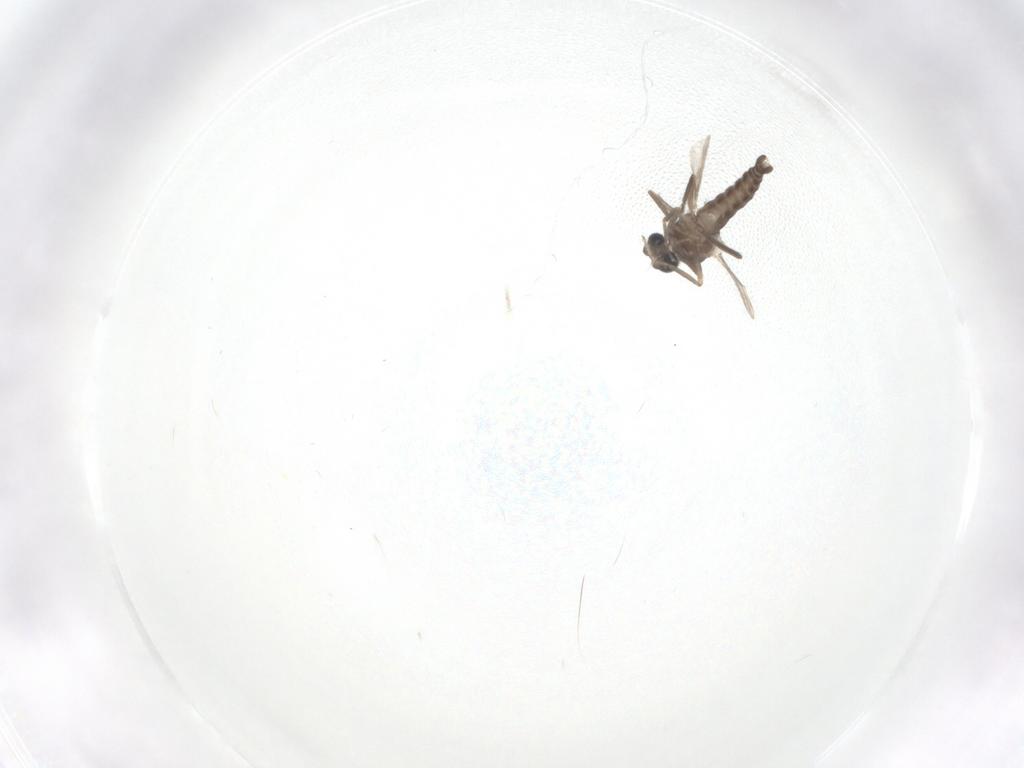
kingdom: Animalia
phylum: Arthropoda
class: Insecta
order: Diptera
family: Ceratopogonidae
